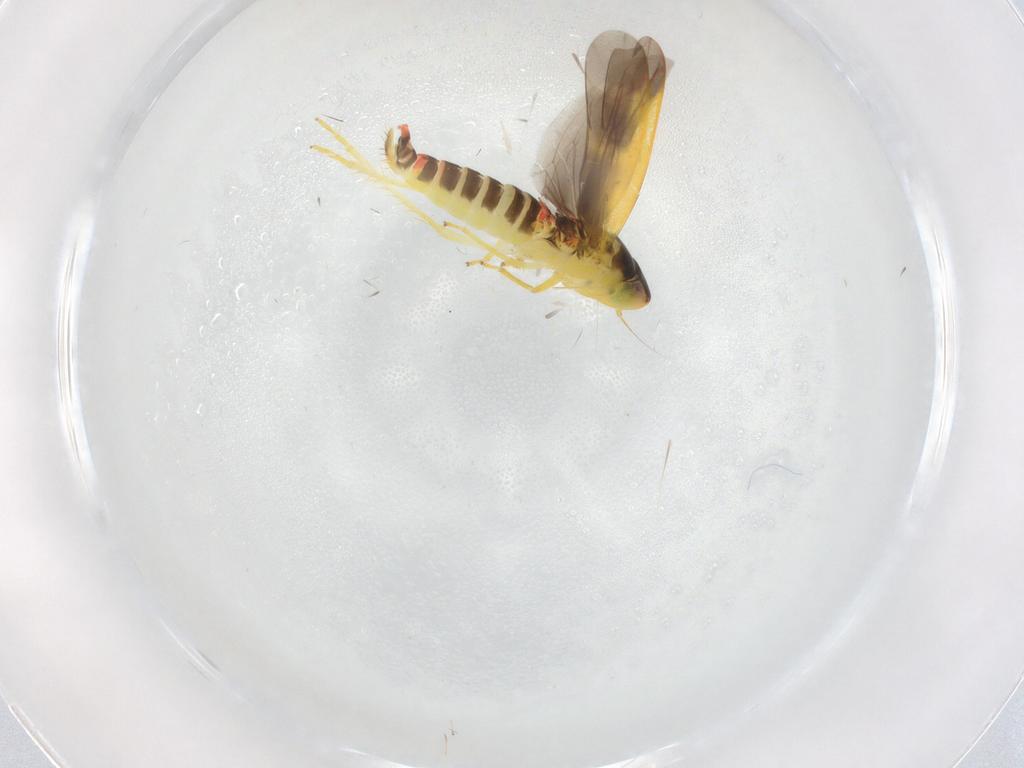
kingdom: Animalia
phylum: Arthropoda
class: Insecta
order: Hemiptera
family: Cicadellidae
